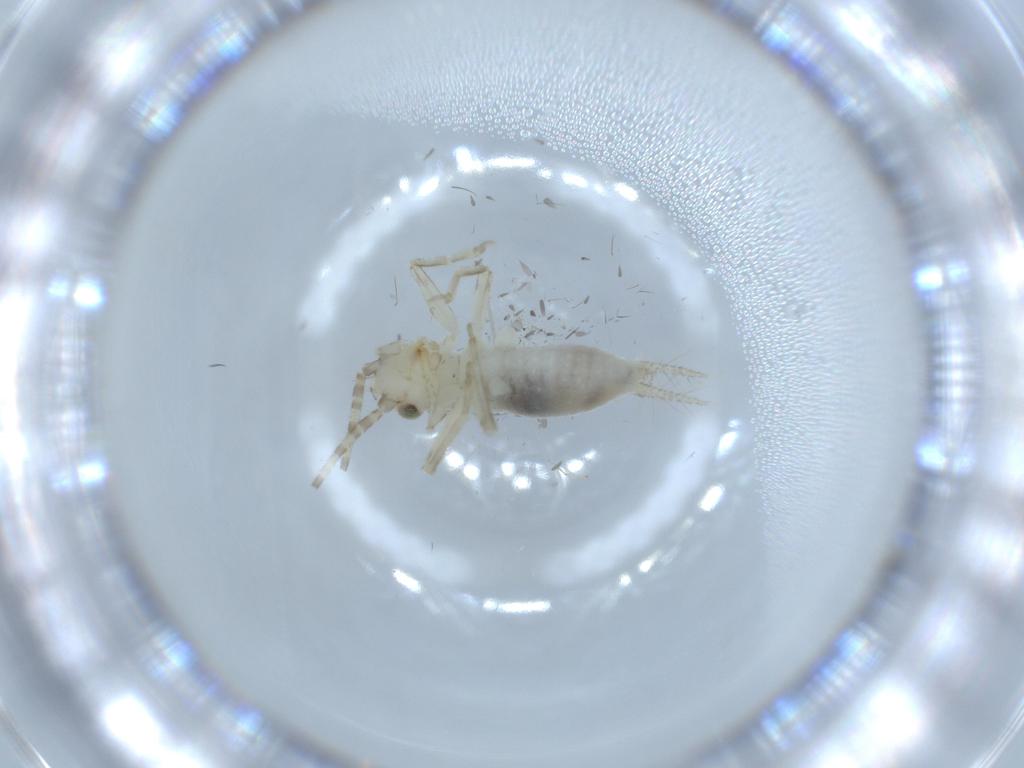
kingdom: Animalia
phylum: Arthropoda
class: Insecta
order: Orthoptera
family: Trigonidiidae
